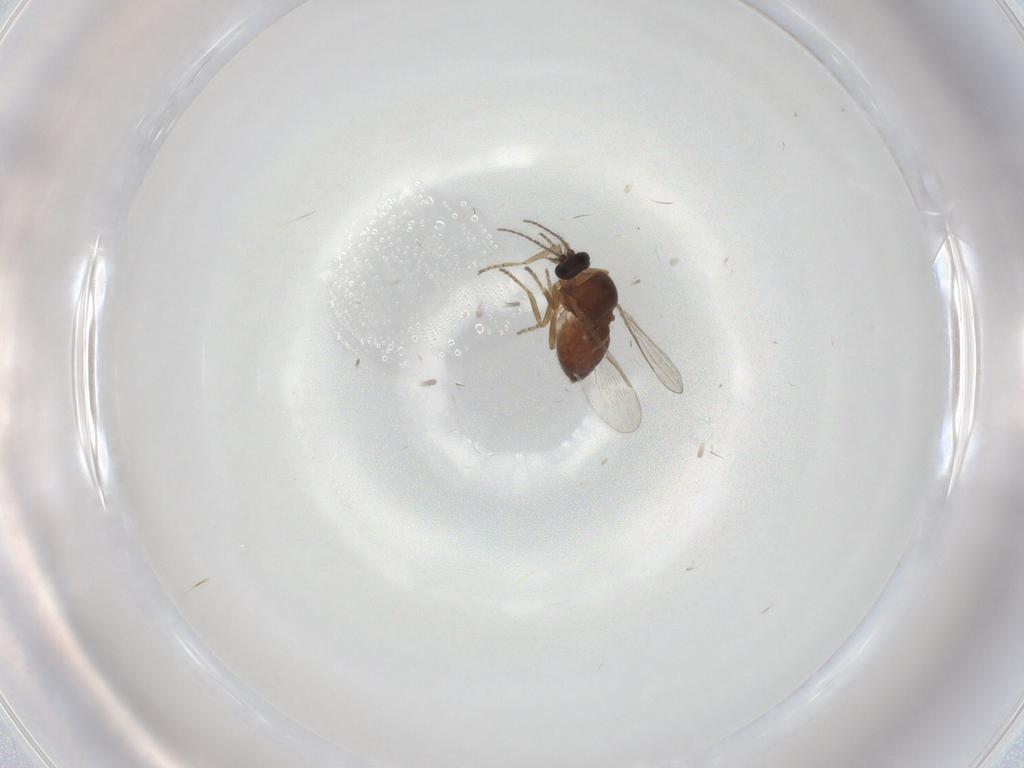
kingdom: Animalia
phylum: Arthropoda
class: Insecta
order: Diptera
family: Ceratopogonidae
